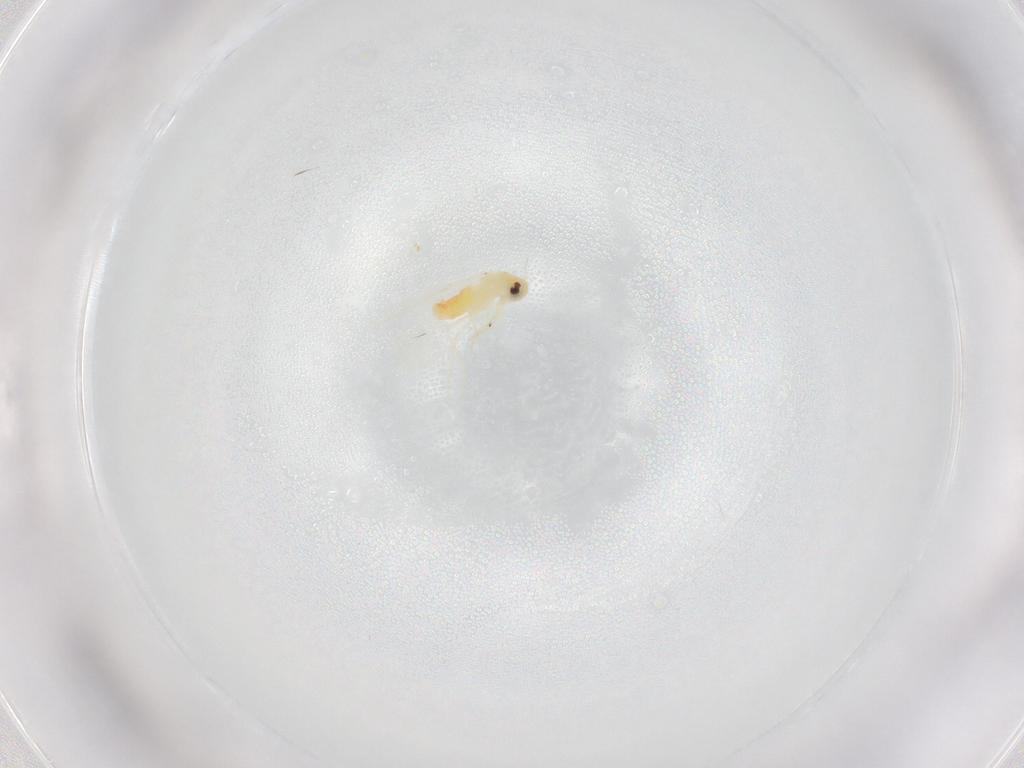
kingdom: Animalia
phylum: Arthropoda
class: Insecta
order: Hemiptera
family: Aleyrodidae
